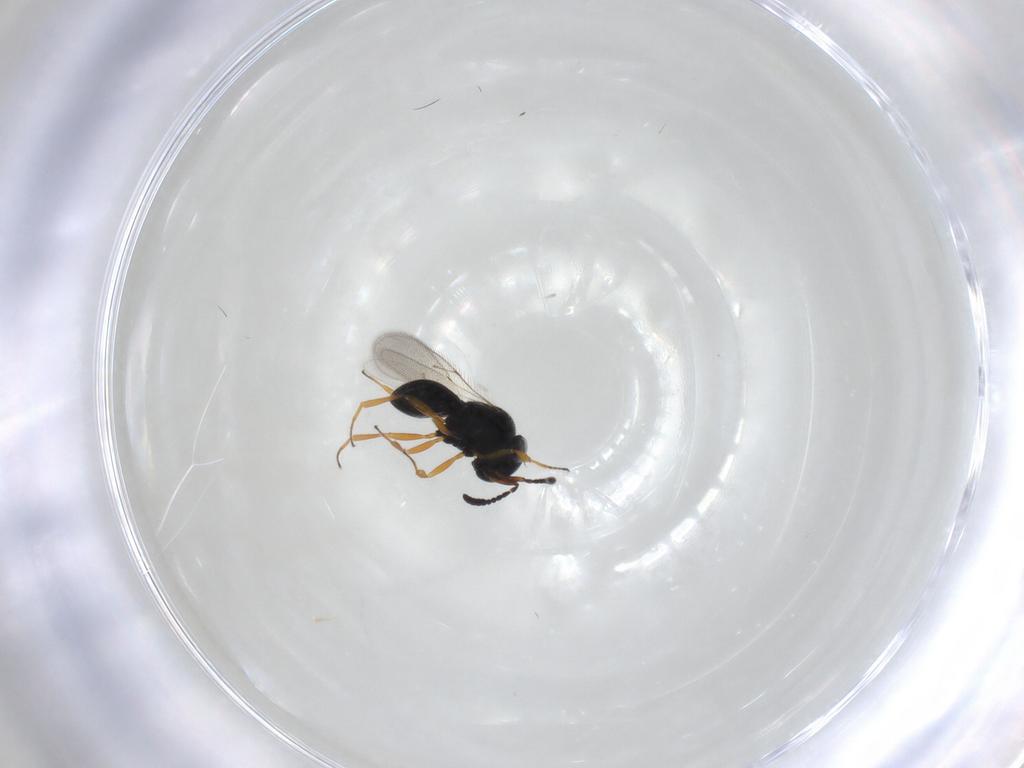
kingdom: Animalia
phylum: Arthropoda
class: Insecta
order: Hymenoptera
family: Scelionidae
